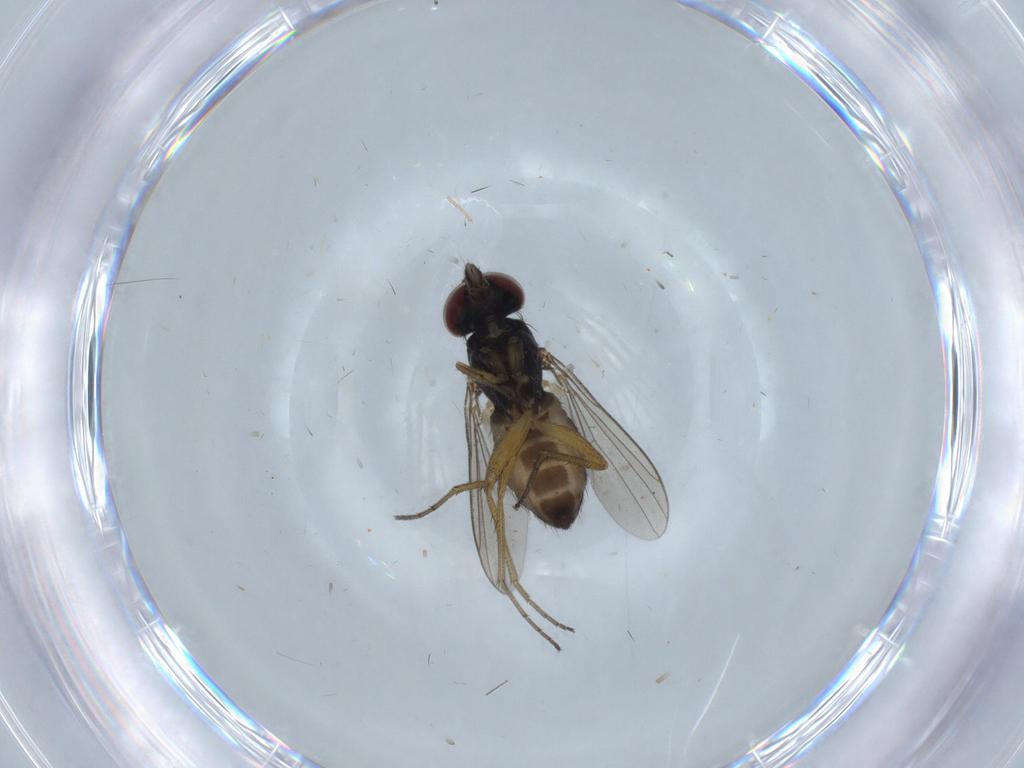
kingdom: Animalia
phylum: Arthropoda
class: Insecta
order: Diptera
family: Dolichopodidae
